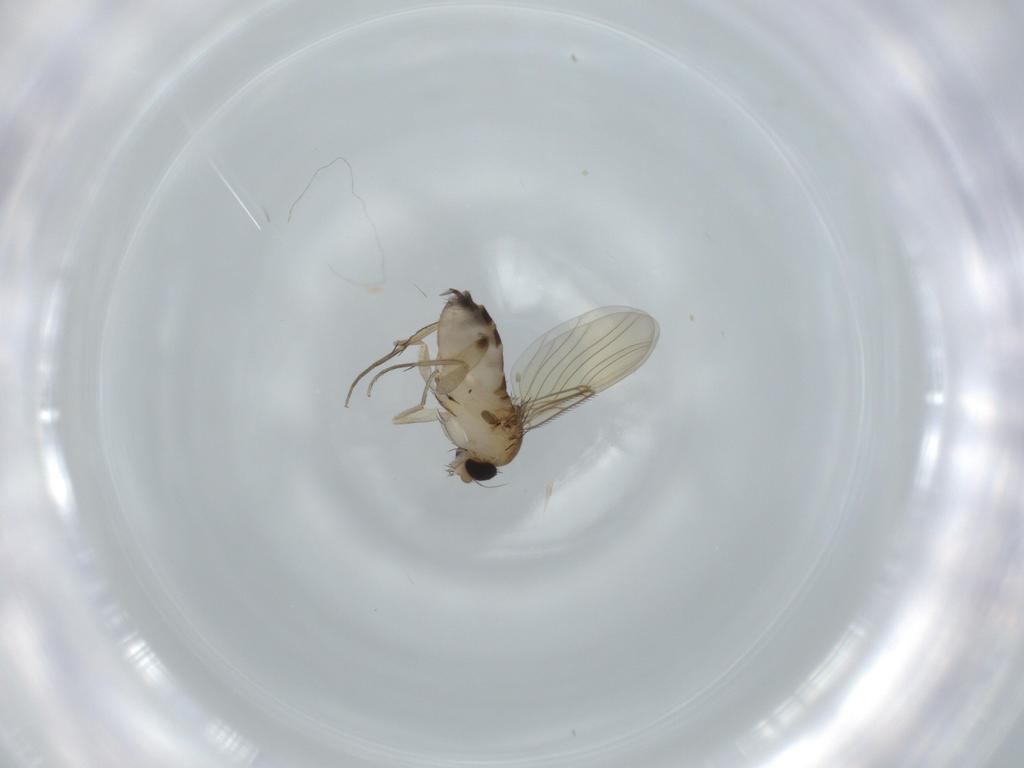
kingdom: Animalia
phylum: Arthropoda
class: Insecta
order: Diptera
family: Phoridae
